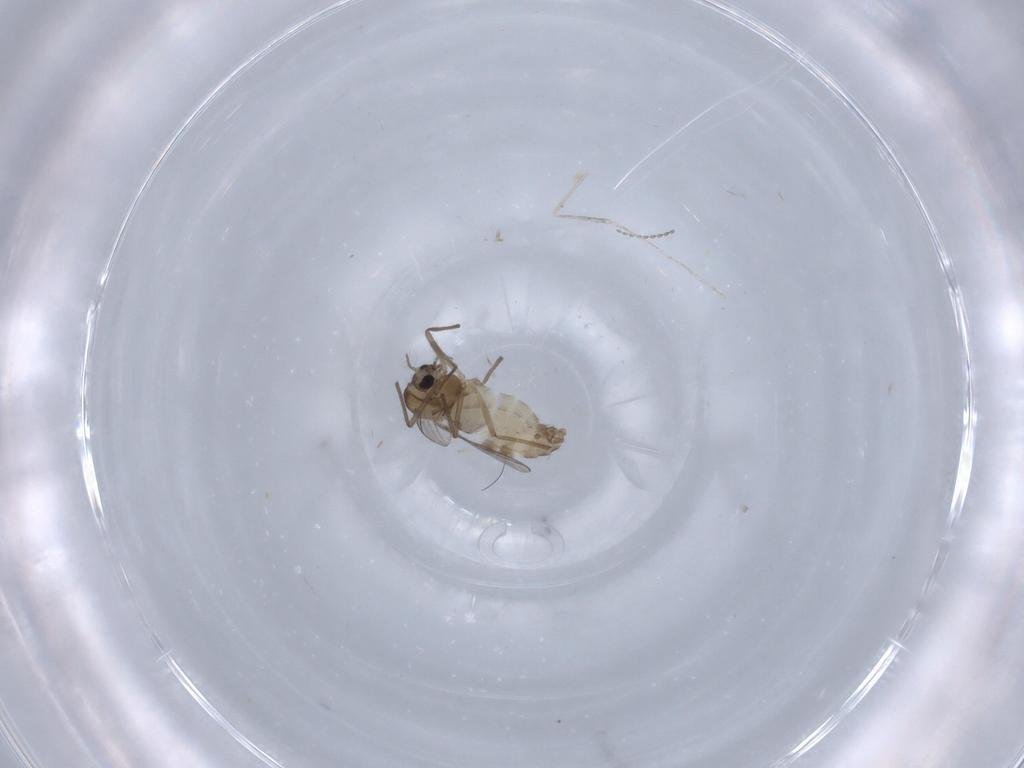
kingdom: Animalia
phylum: Arthropoda
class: Insecta
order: Diptera
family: Chironomidae
